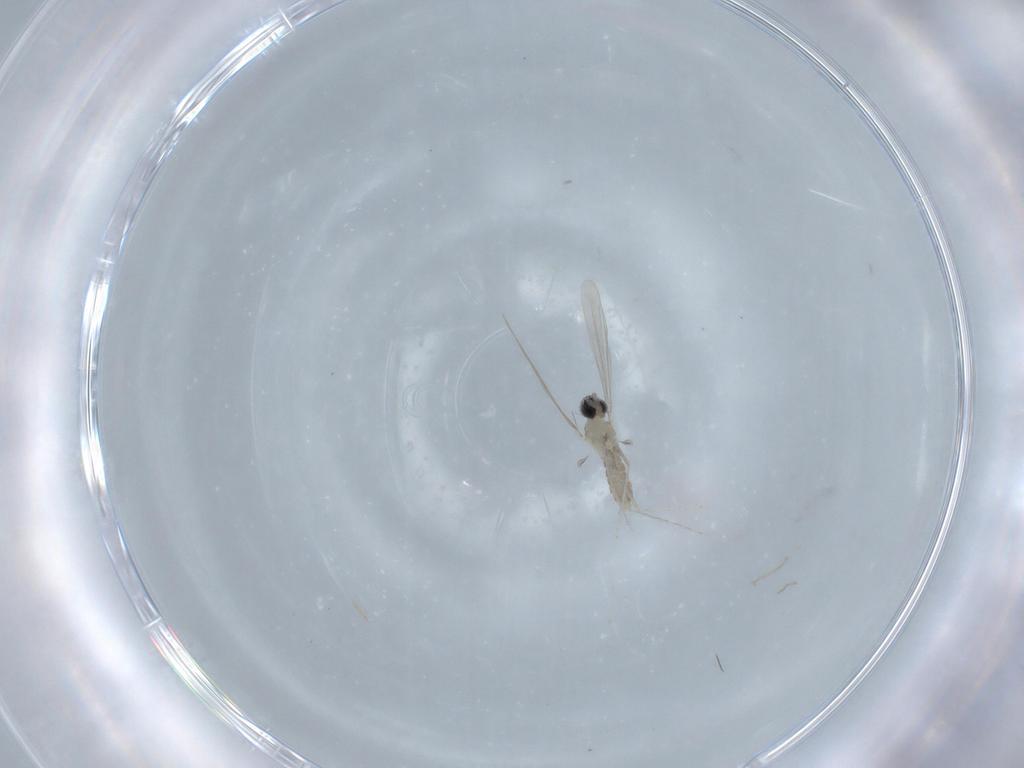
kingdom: Animalia
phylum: Arthropoda
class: Insecta
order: Diptera
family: Cecidomyiidae
